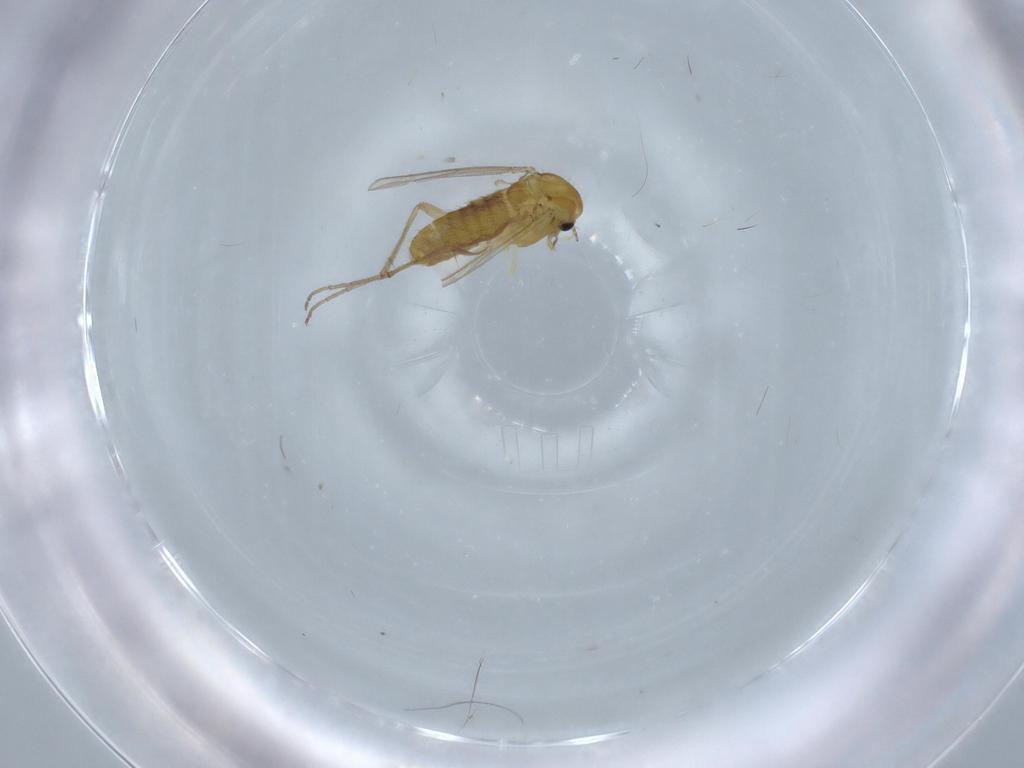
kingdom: Animalia
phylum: Arthropoda
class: Insecta
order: Diptera
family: Chironomidae
